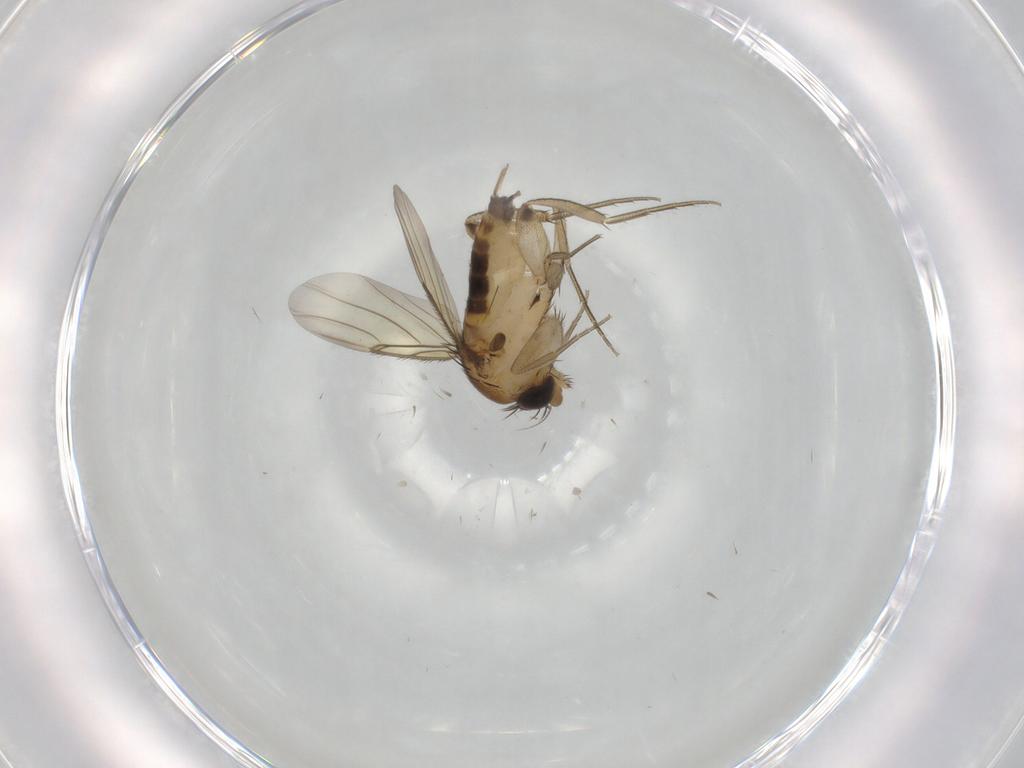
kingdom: Animalia
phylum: Arthropoda
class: Insecta
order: Diptera
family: Phoridae
